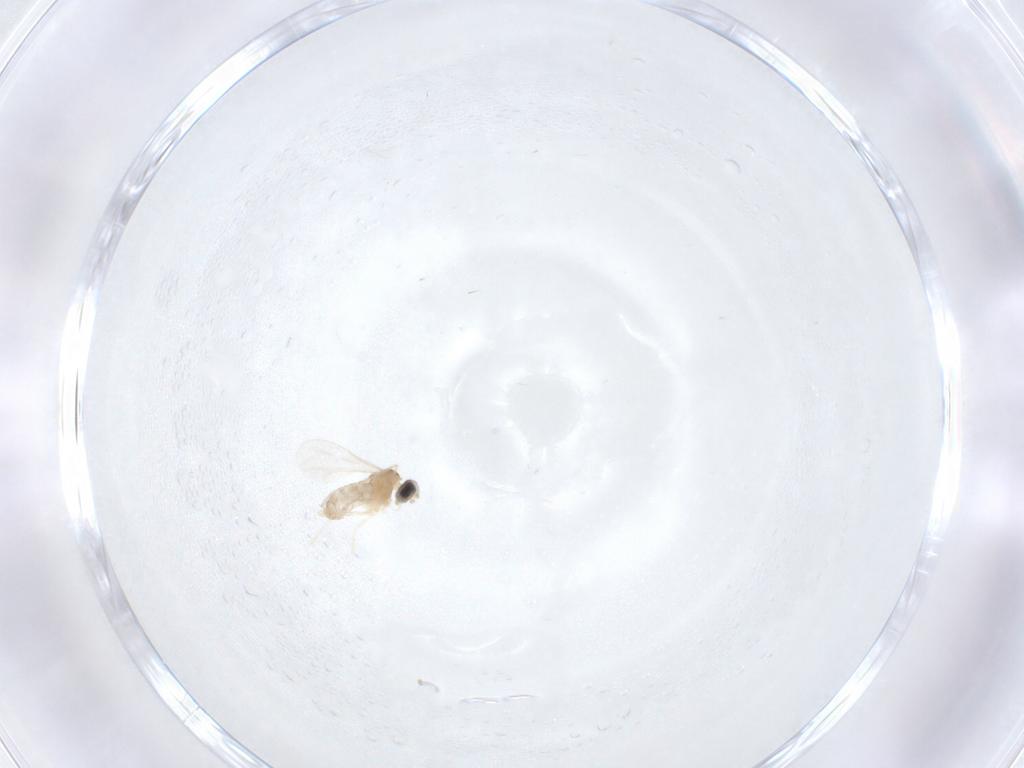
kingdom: Animalia
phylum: Arthropoda
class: Insecta
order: Diptera
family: Cecidomyiidae
